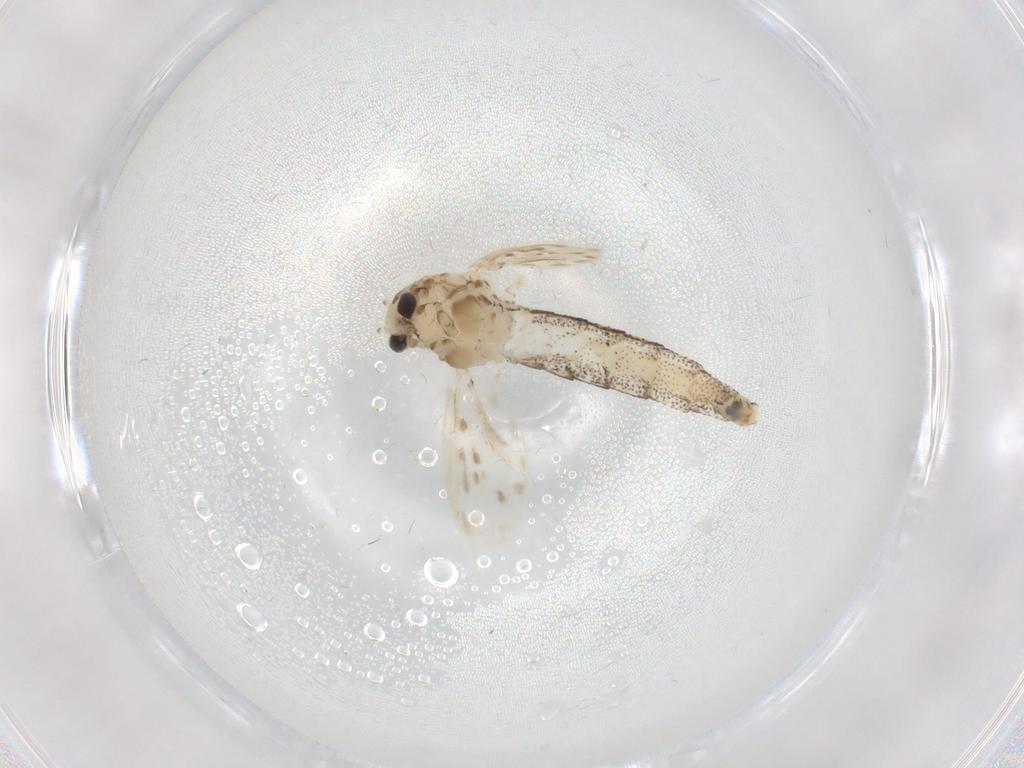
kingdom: Animalia
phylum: Arthropoda
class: Insecta
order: Diptera
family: Chaoboridae
